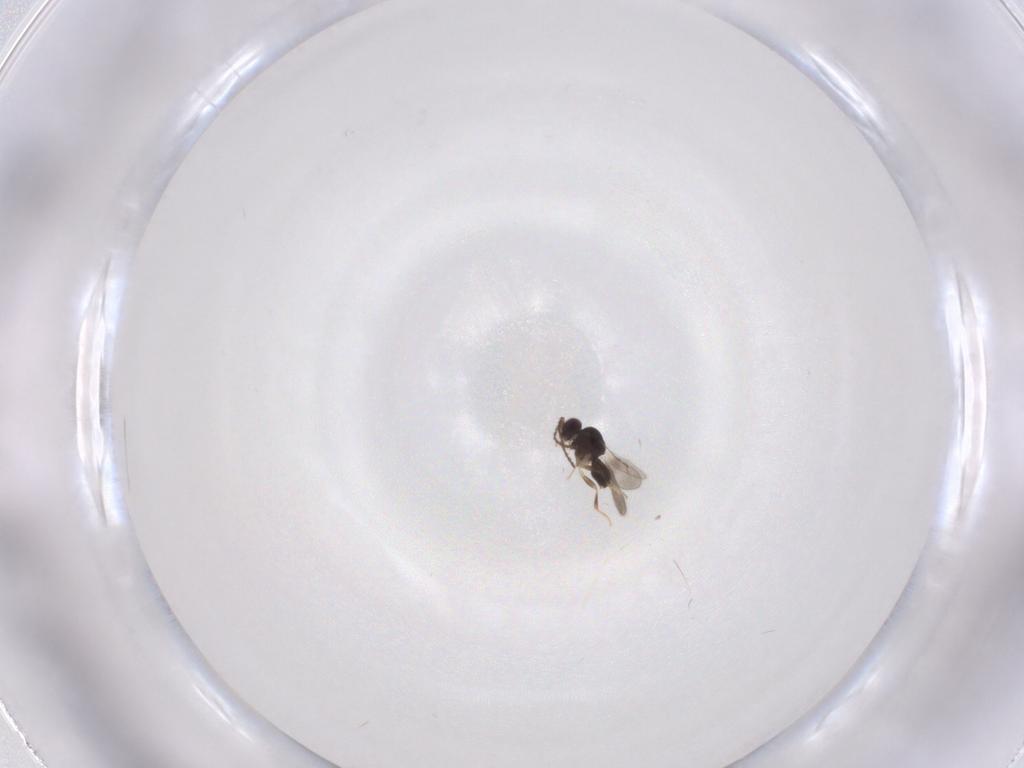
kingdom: Animalia
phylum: Arthropoda
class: Insecta
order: Hymenoptera
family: Ceraphronidae
